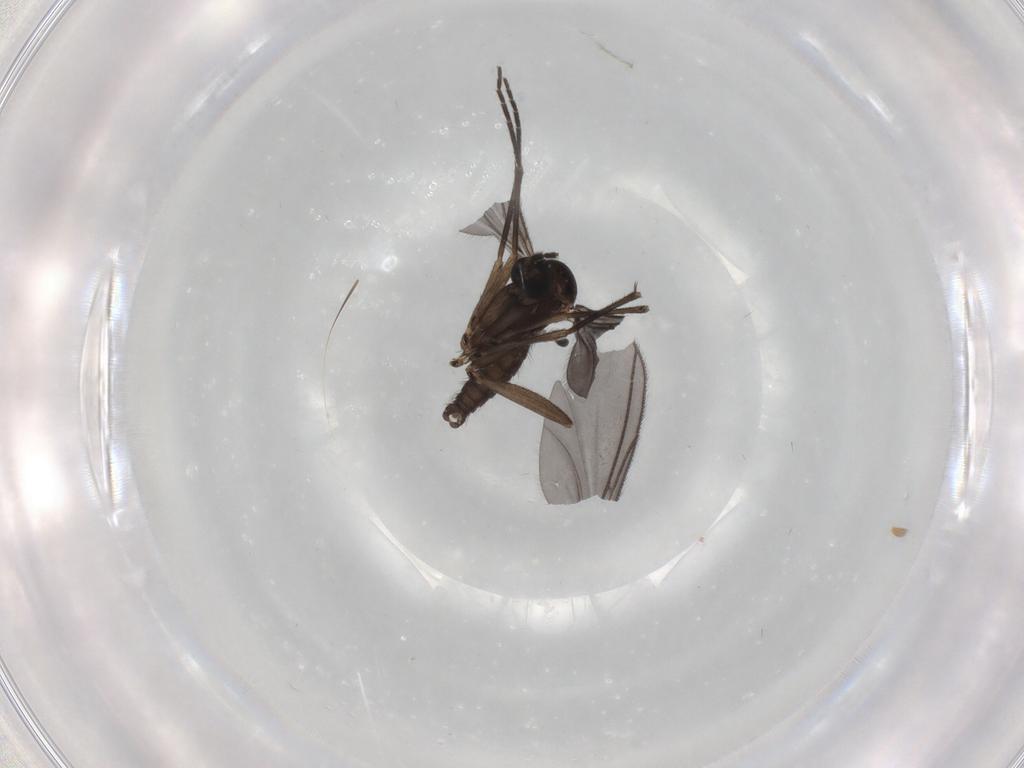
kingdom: Animalia
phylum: Arthropoda
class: Insecta
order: Diptera
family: Sciaridae
